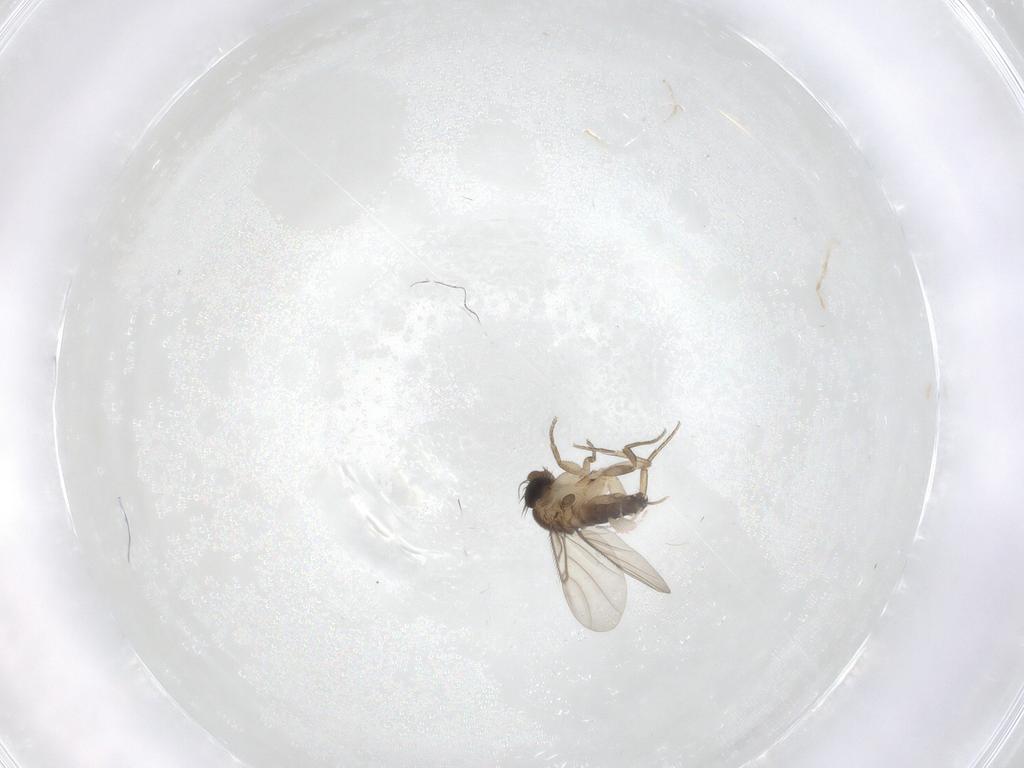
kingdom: Animalia
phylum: Arthropoda
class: Insecta
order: Diptera
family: Phoridae
